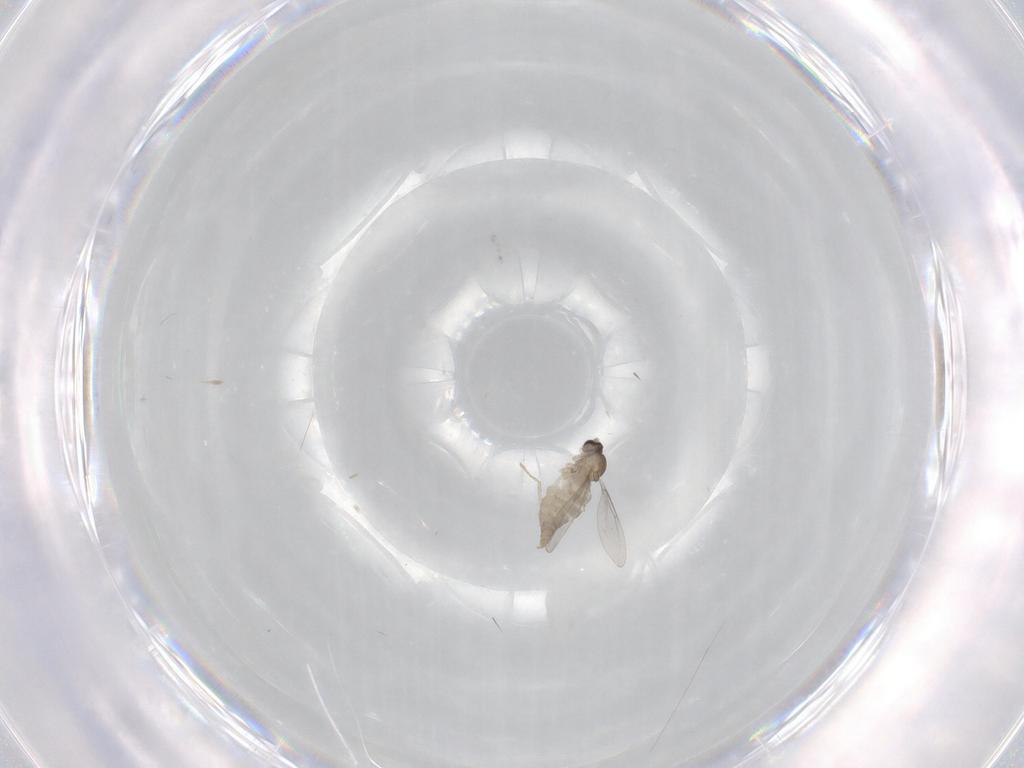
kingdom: Animalia
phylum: Arthropoda
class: Insecta
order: Diptera
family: Cecidomyiidae
